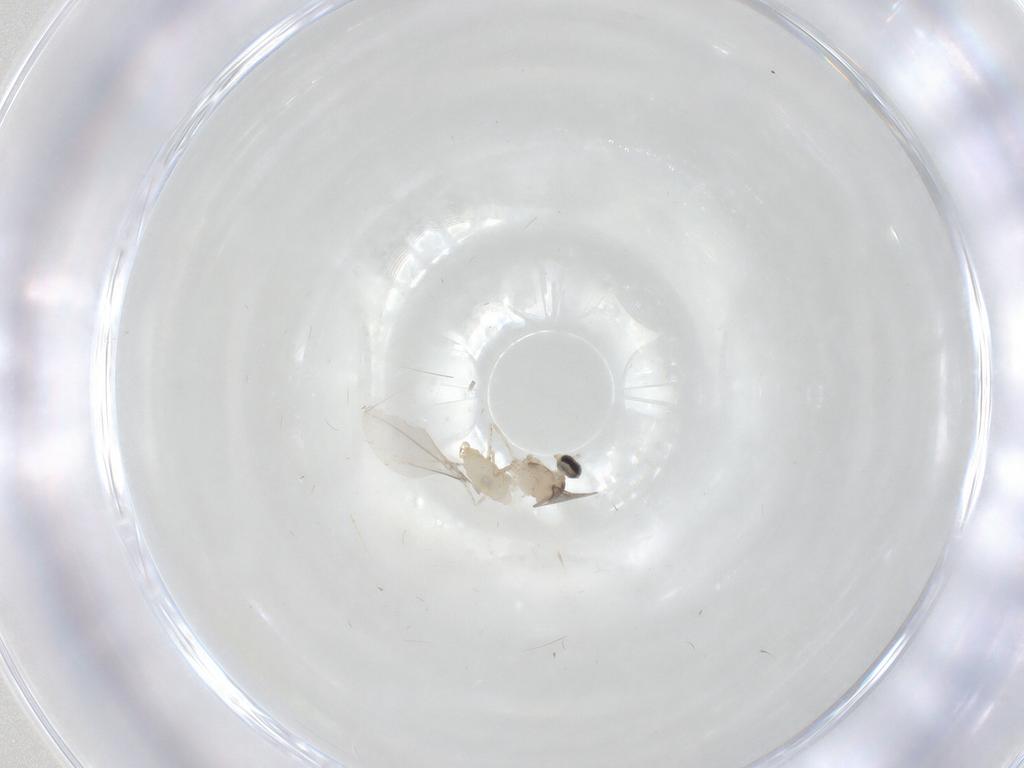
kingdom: Animalia
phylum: Arthropoda
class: Insecta
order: Diptera
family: Cecidomyiidae
